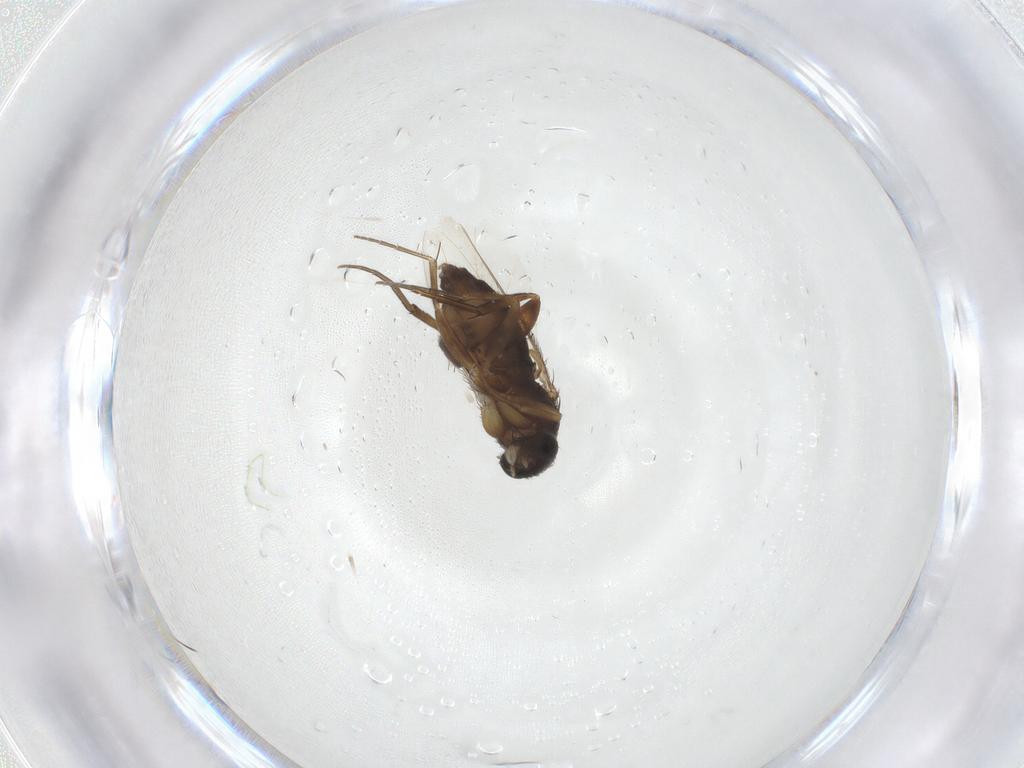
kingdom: Animalia
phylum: Arthropoda
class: Insecta
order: Diptera
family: Phoridae
